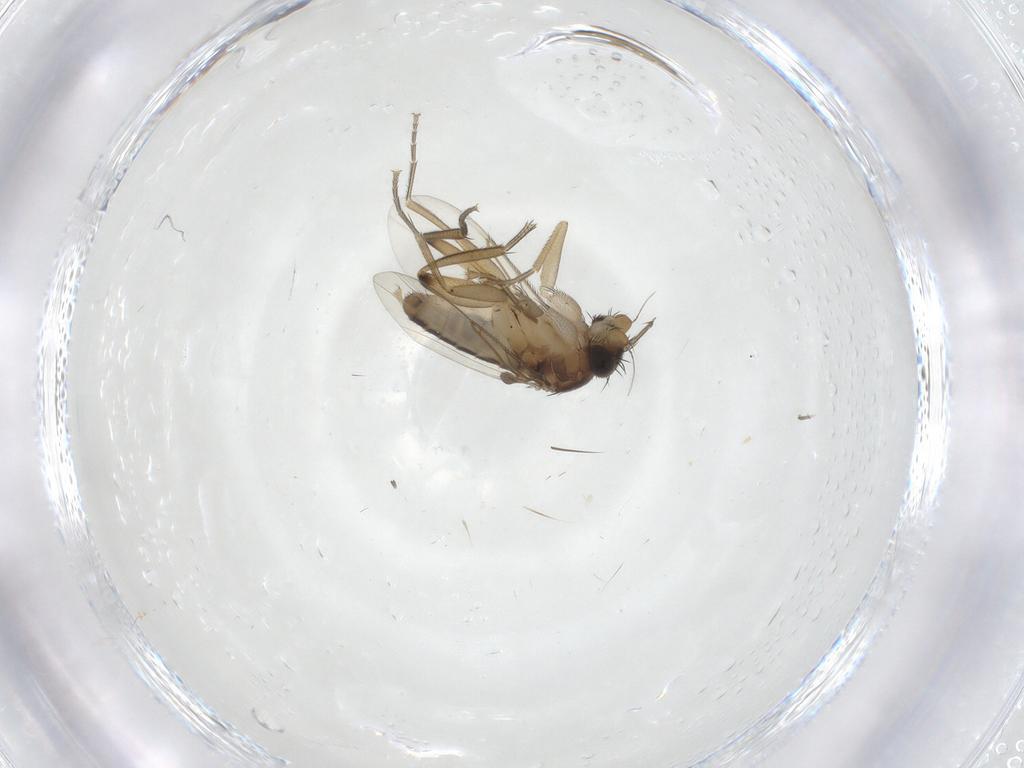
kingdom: Animalia
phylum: Arthropoda
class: Insecta
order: Diptera
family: Phoridae
